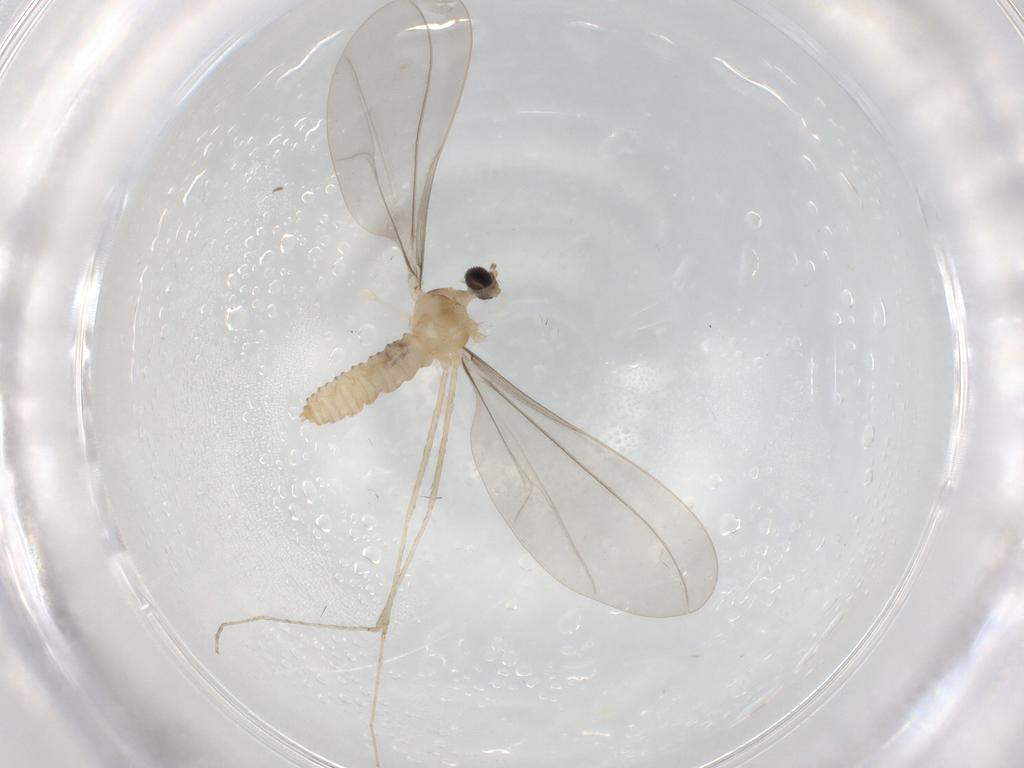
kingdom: Animalia
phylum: Arthropoda
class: Insecta
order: Diptera
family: Cecidomyiidae
